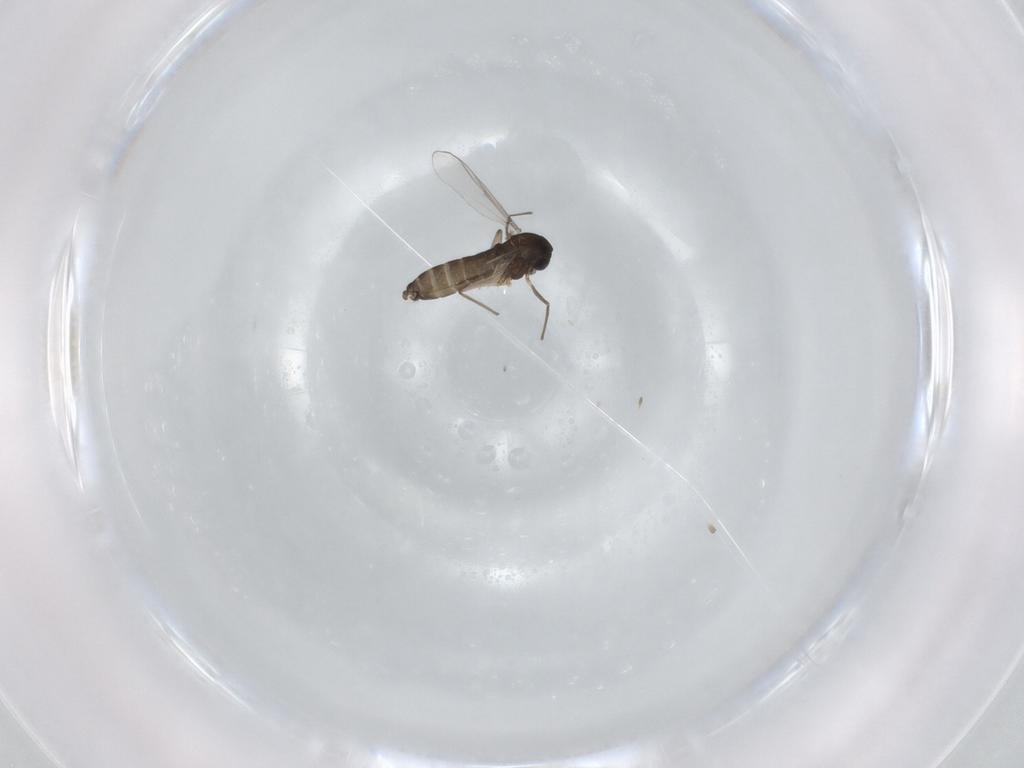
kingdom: Animalia
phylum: Arthropoda
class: Insecta
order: Diptera
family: Chironomidae
